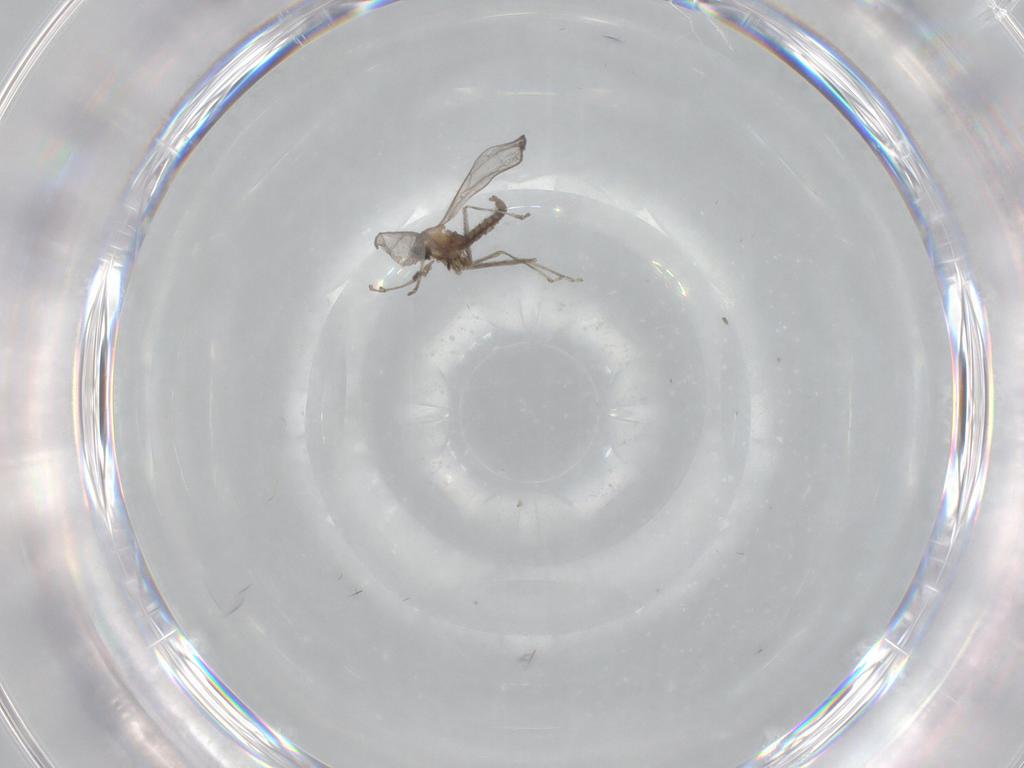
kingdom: Animalia
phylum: Arthropoda
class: Insecta
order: Diptera
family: Cecidomyiidae
